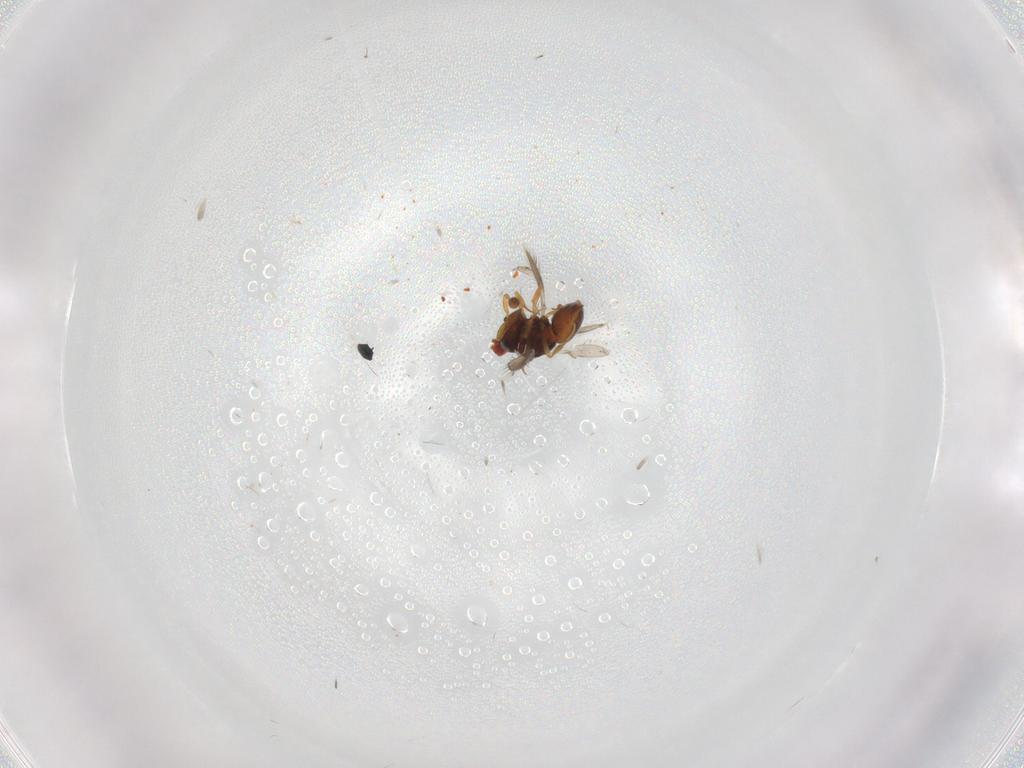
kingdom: Animalia
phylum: Arthropoda
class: Insecta
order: Hymenoptera
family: Scelionidae
